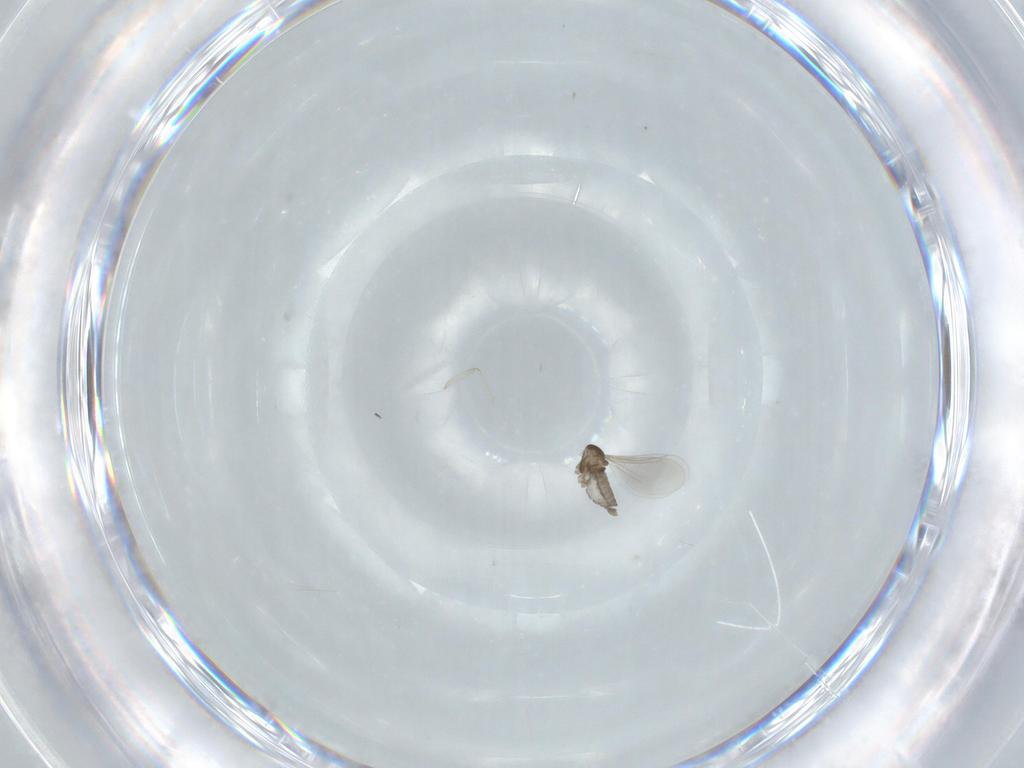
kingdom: Animalia
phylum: Arthropoda
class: Insecta
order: Diptera
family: Cecidomyiidae
